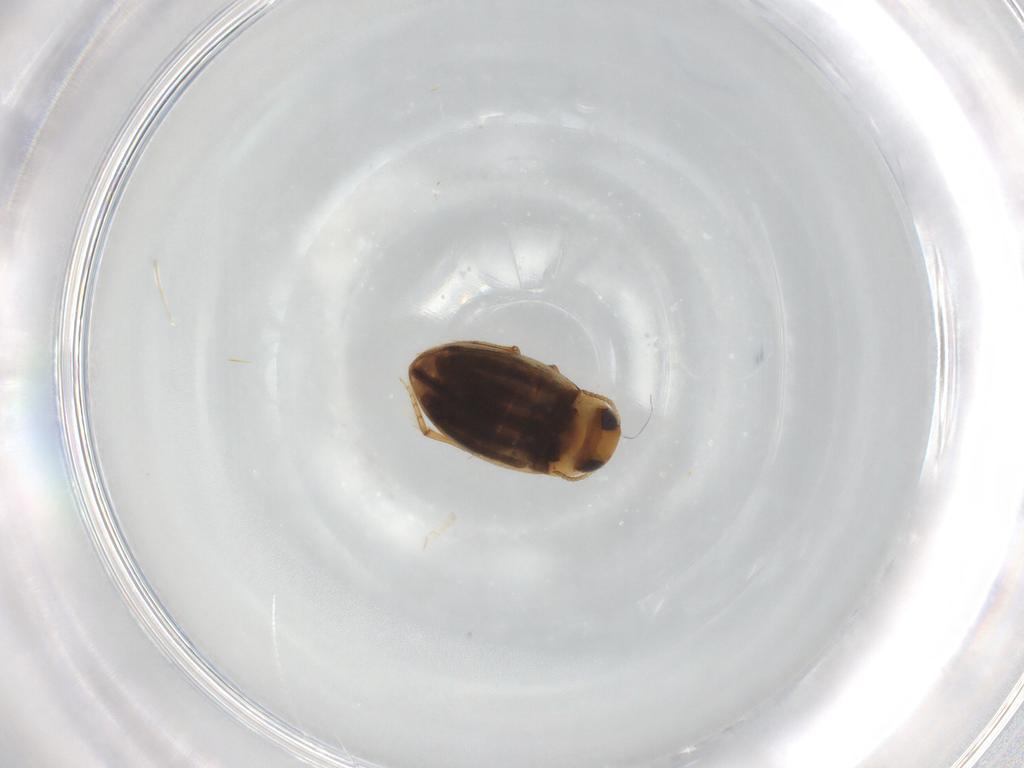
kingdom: Animalia
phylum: Arthropoda
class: Insecta
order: Coleoptera
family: Dytiscidae
